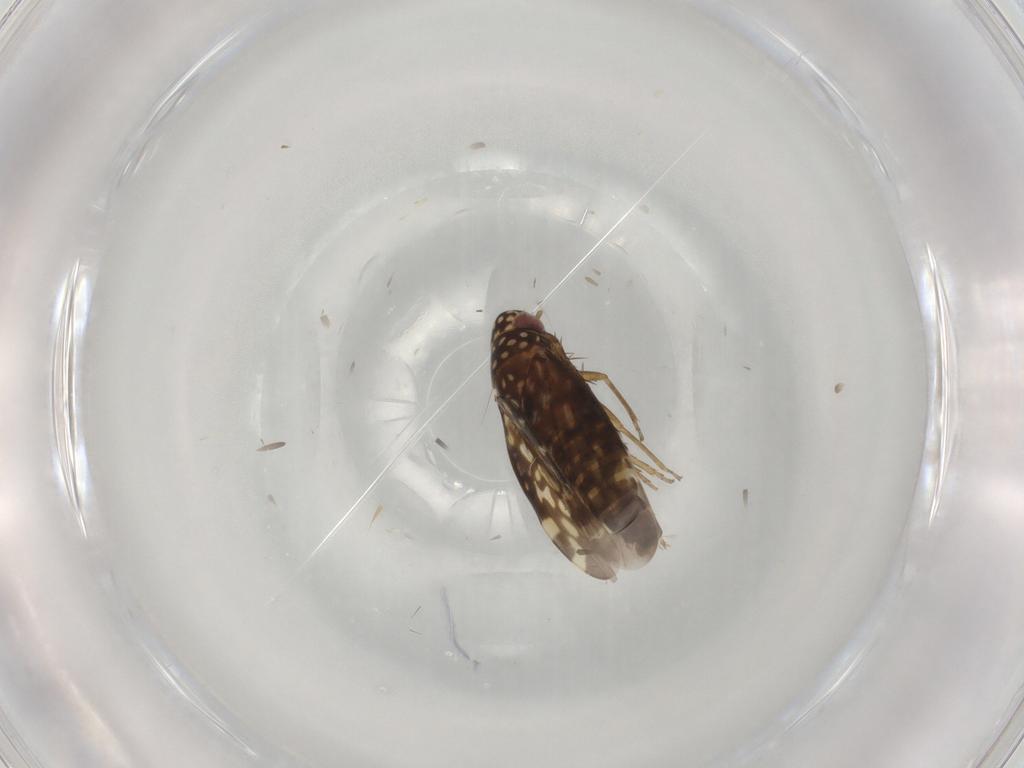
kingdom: Animalia
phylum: Arthropoda
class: Insecta
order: Hemiptera
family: Cicadellidae
